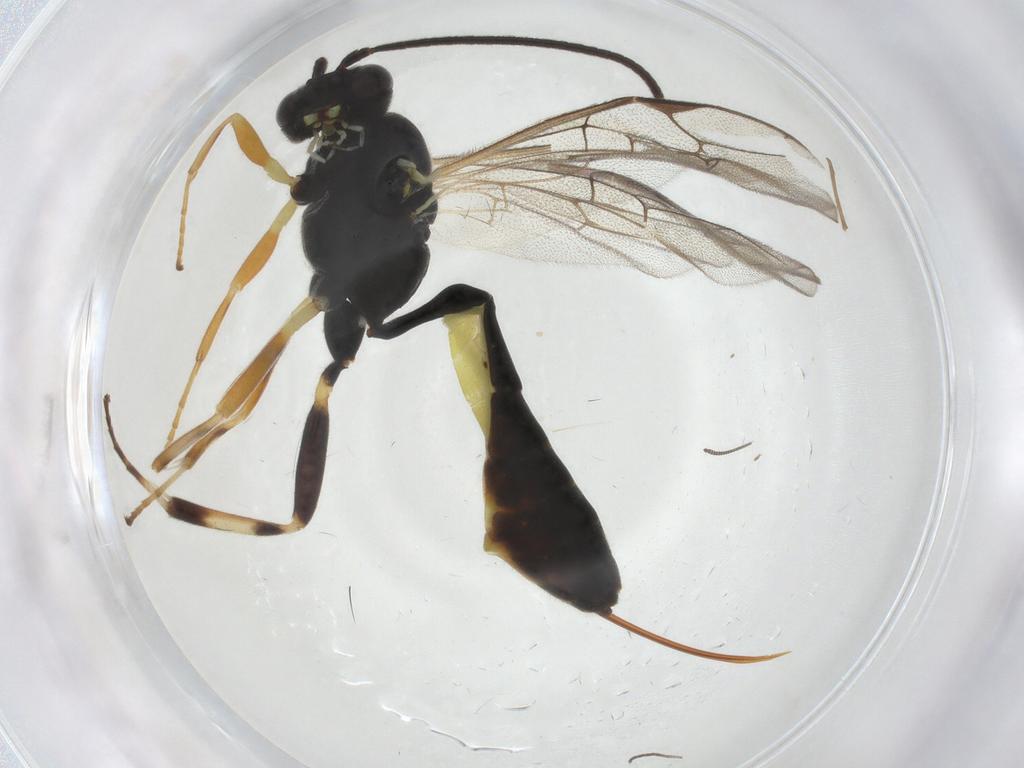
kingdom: Animalia
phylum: Arthropoda
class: Insecta
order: Hymenoptera
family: Ichneumonidae
